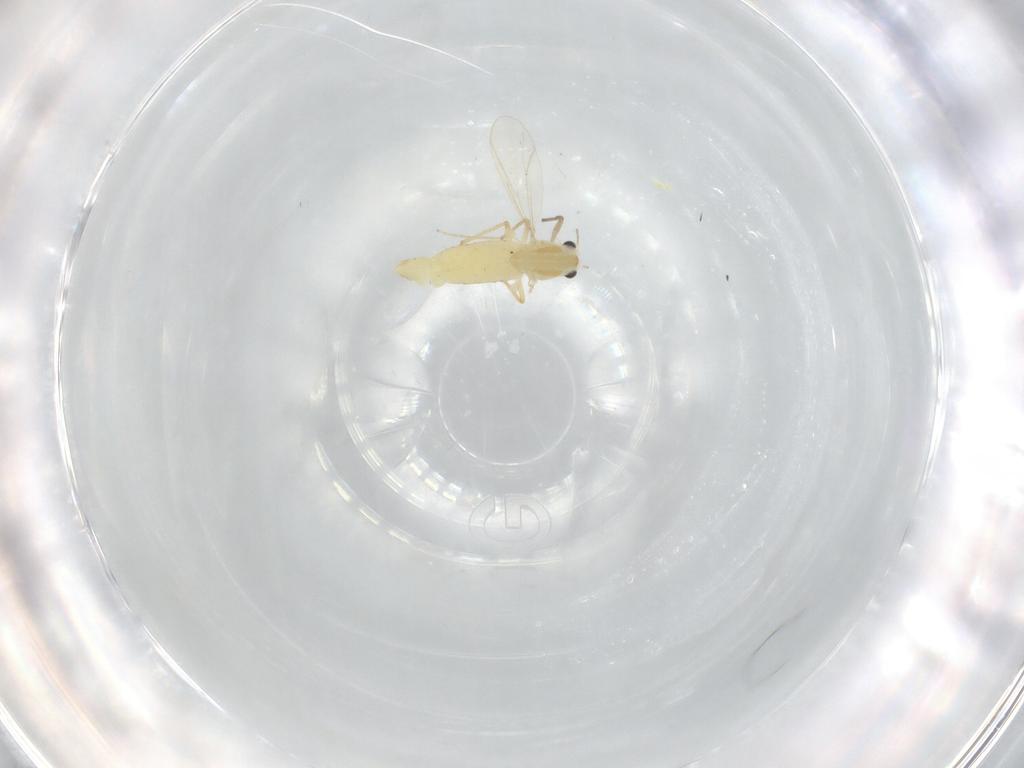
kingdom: Animalia
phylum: Arthropoda
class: Insecta
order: Diptera
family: Chironomidae
